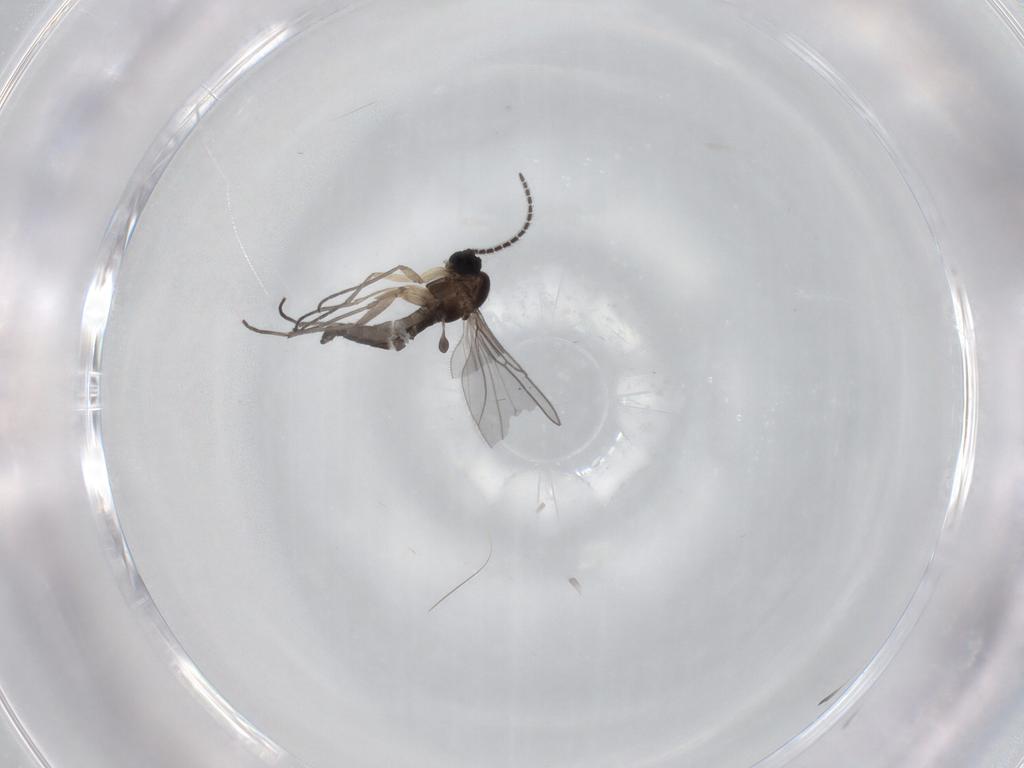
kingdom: Animalia
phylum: Arthropoda
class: Insecta
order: Diptera
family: Sciaridae
